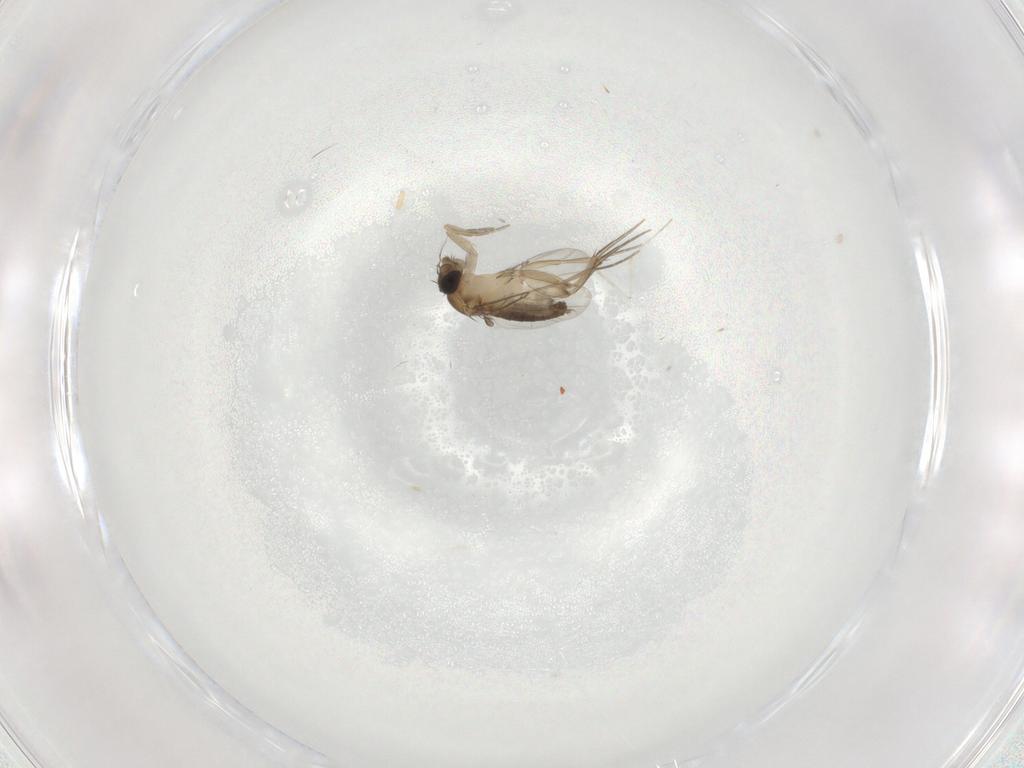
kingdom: Animalia
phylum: Arthropoda
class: Insecta
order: Diptera
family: Phoridae
